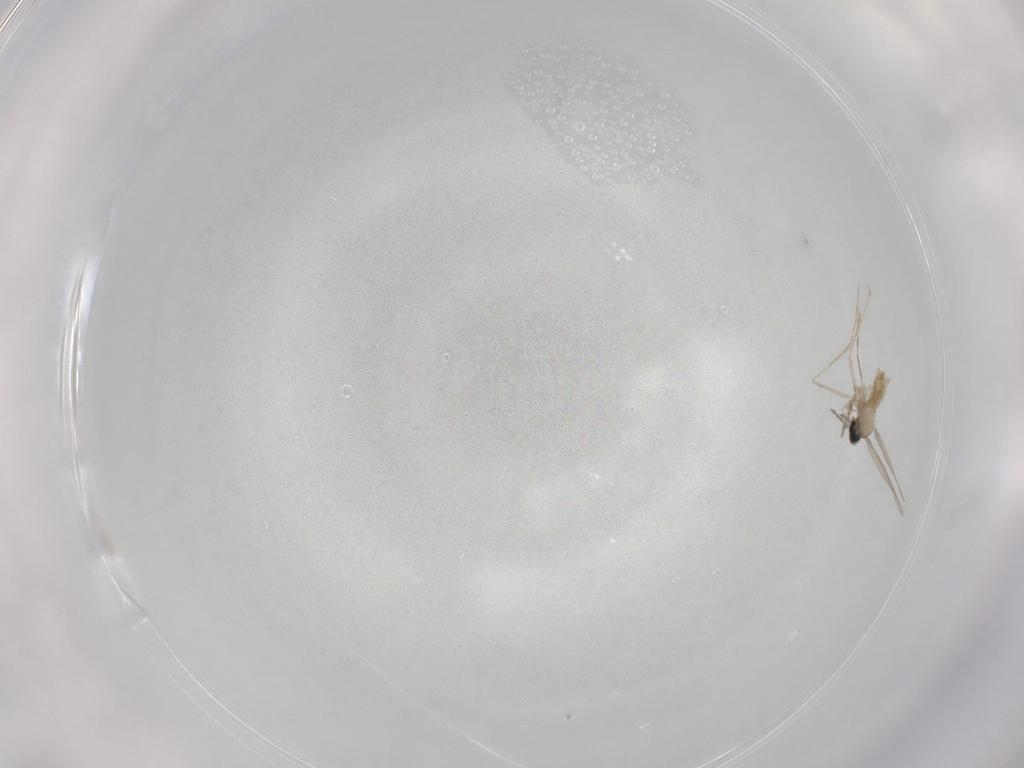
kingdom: Animalia
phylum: Arthropoda
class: Insecta
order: Diptera
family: Cecidomyiidae
